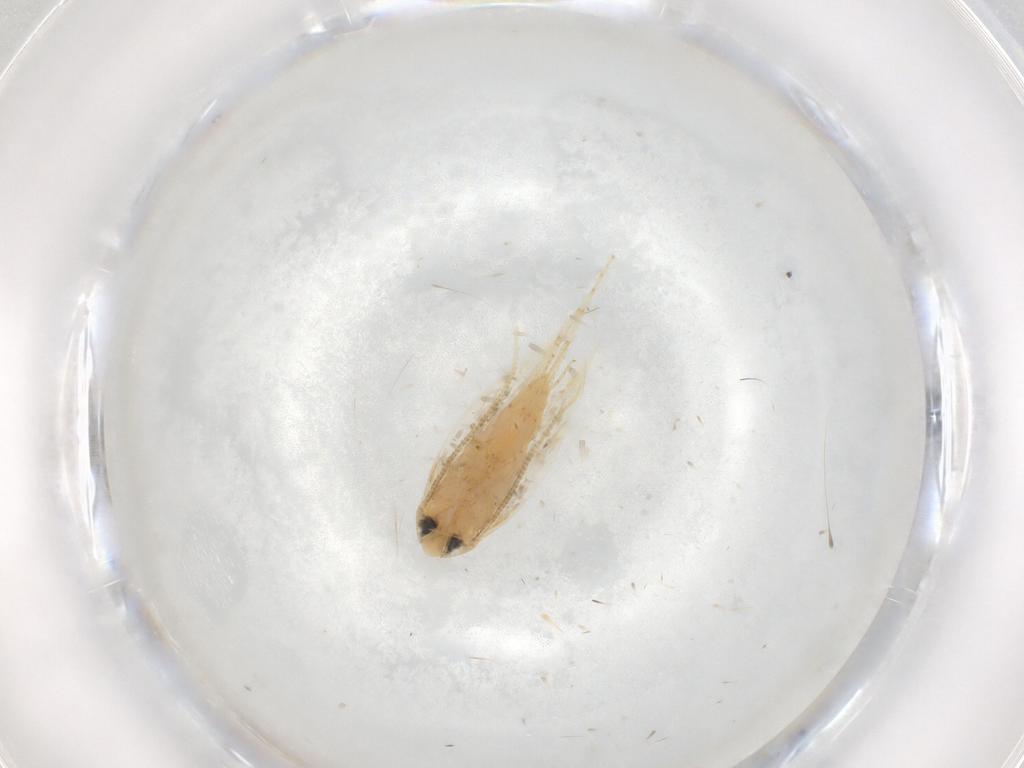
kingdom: Animalia
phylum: Arthropoda
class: Insecta
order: Lepidoptera
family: Opostegidae
